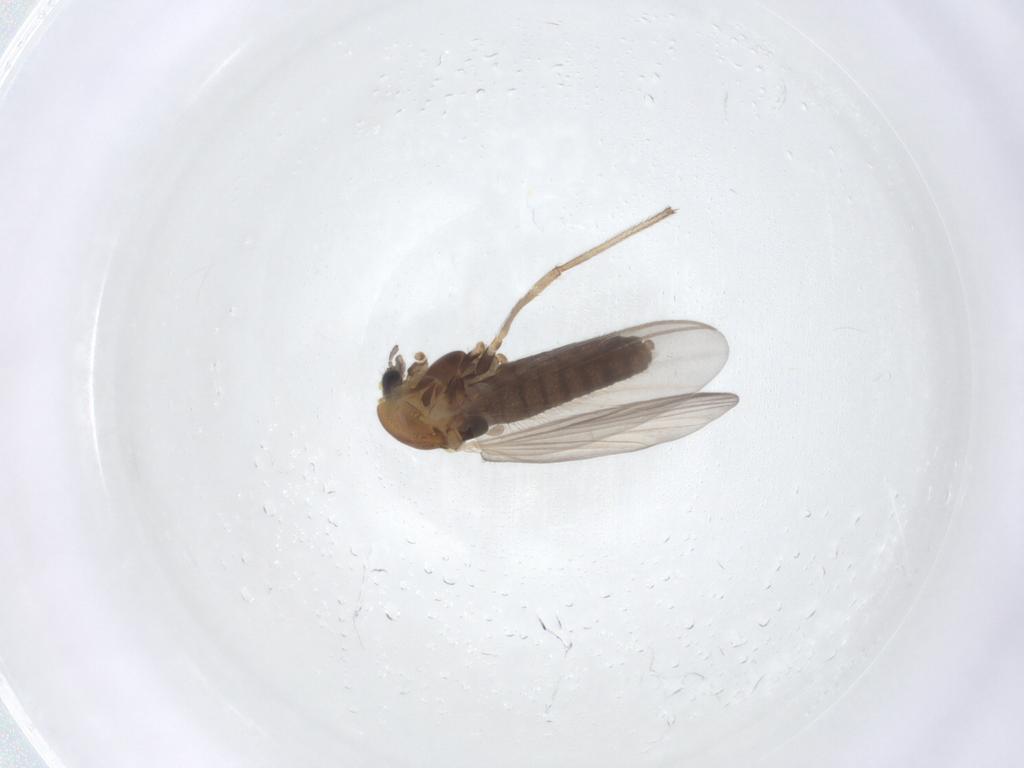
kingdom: Animalia
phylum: Arthropoda
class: Insecta
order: Diptera
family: Chironomidae
